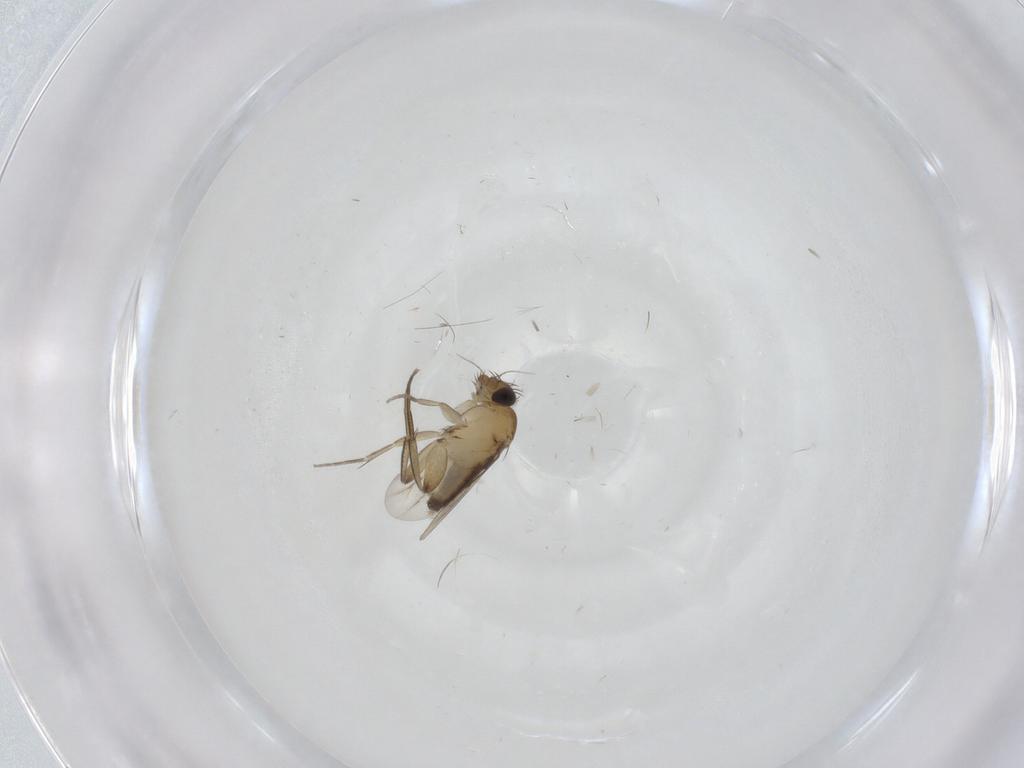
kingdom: Animalia
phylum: Arthropoda
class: Insecta
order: Diptera
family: Phoridae
